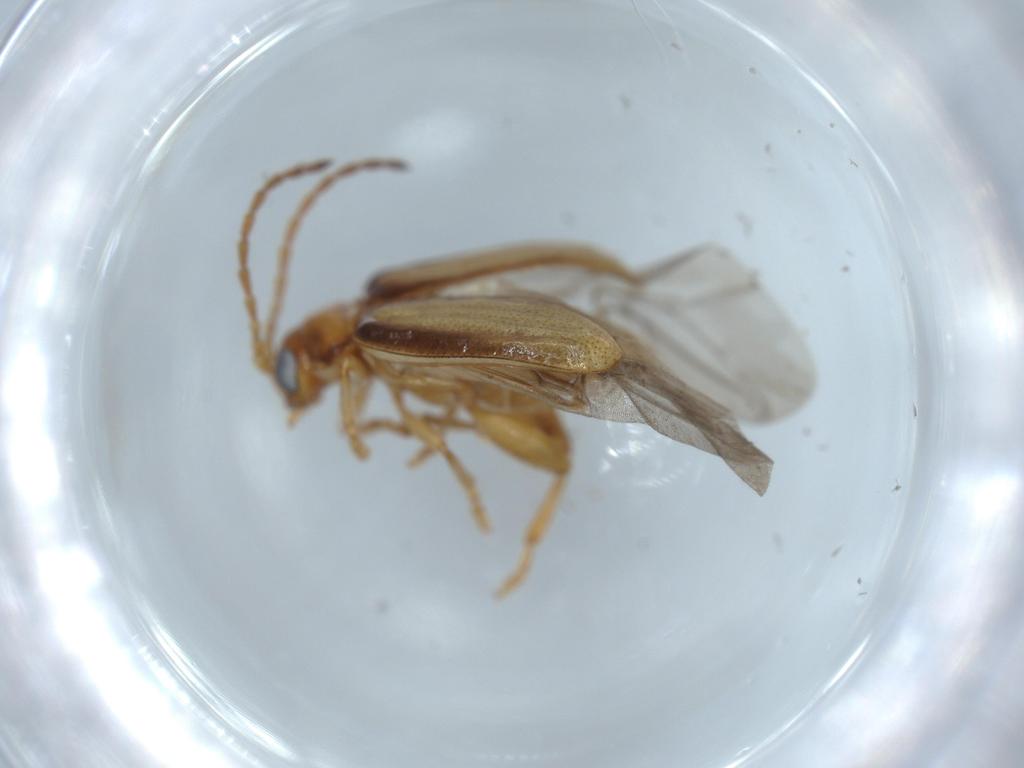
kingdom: Animalia
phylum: Arthropoda
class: Insecta
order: Coleoptera
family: Chrysomelidae
